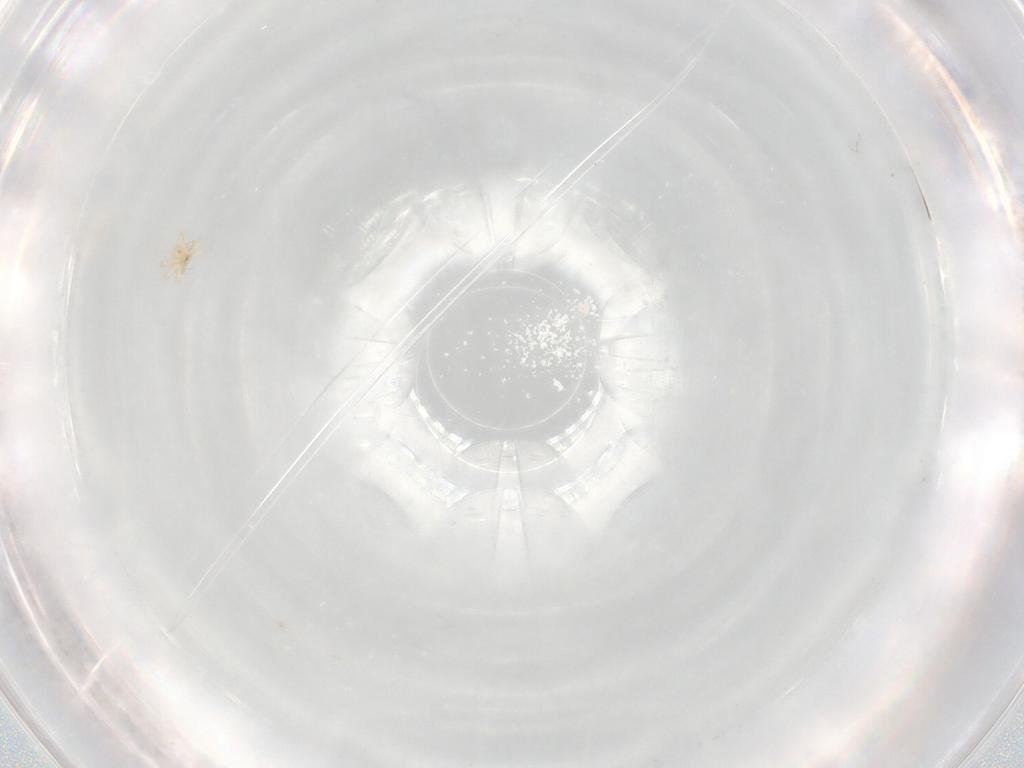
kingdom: Animalia
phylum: Arthropoda
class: Arachnida
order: Trombidiformes
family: Anystidae
